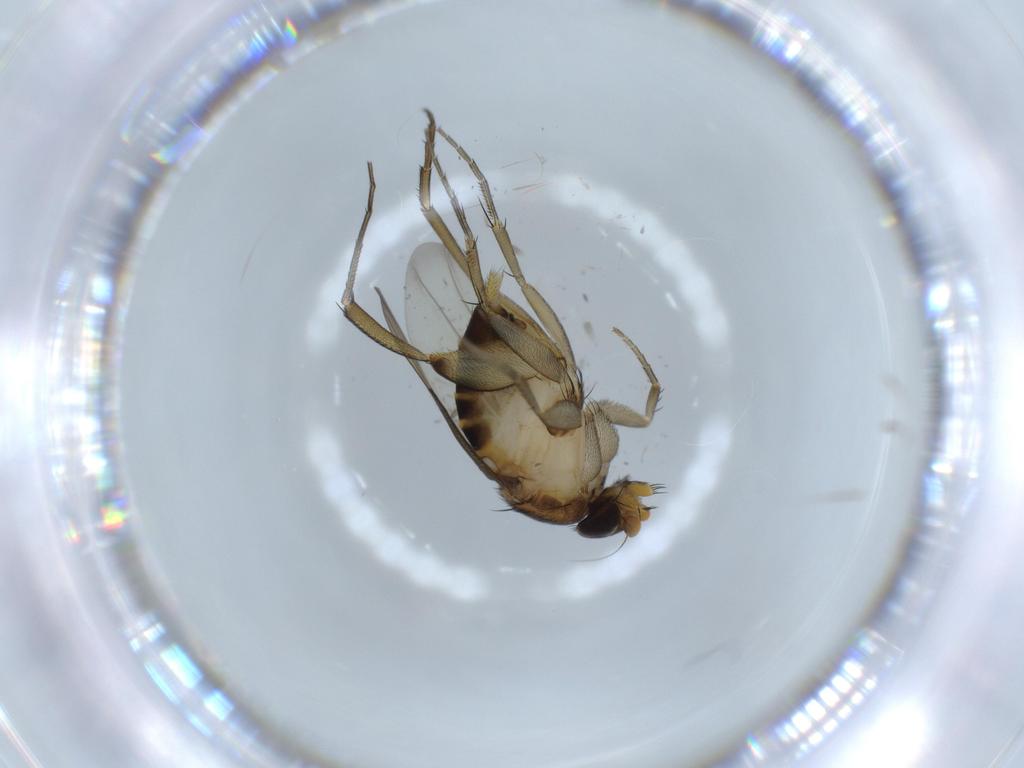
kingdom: Animalia
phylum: Arthropoda
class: Insecta
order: Diptera
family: Phoridae
